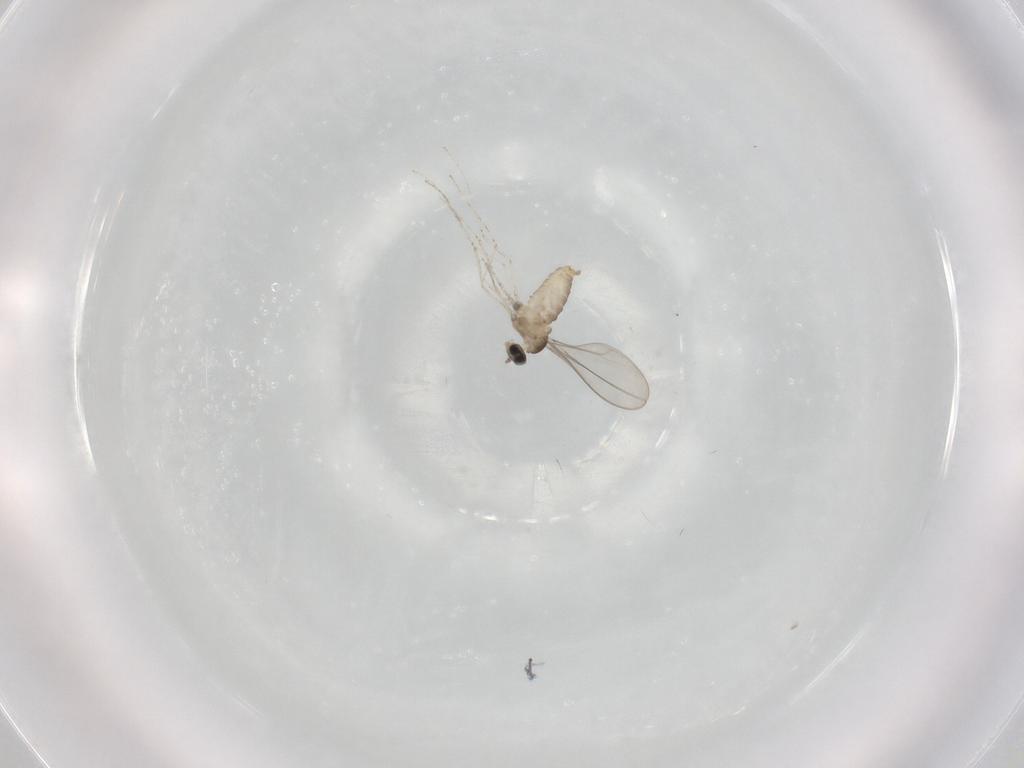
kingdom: Animalia
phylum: Arthropoda
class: Insecta
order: Diptera
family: Cecidomyiidae
